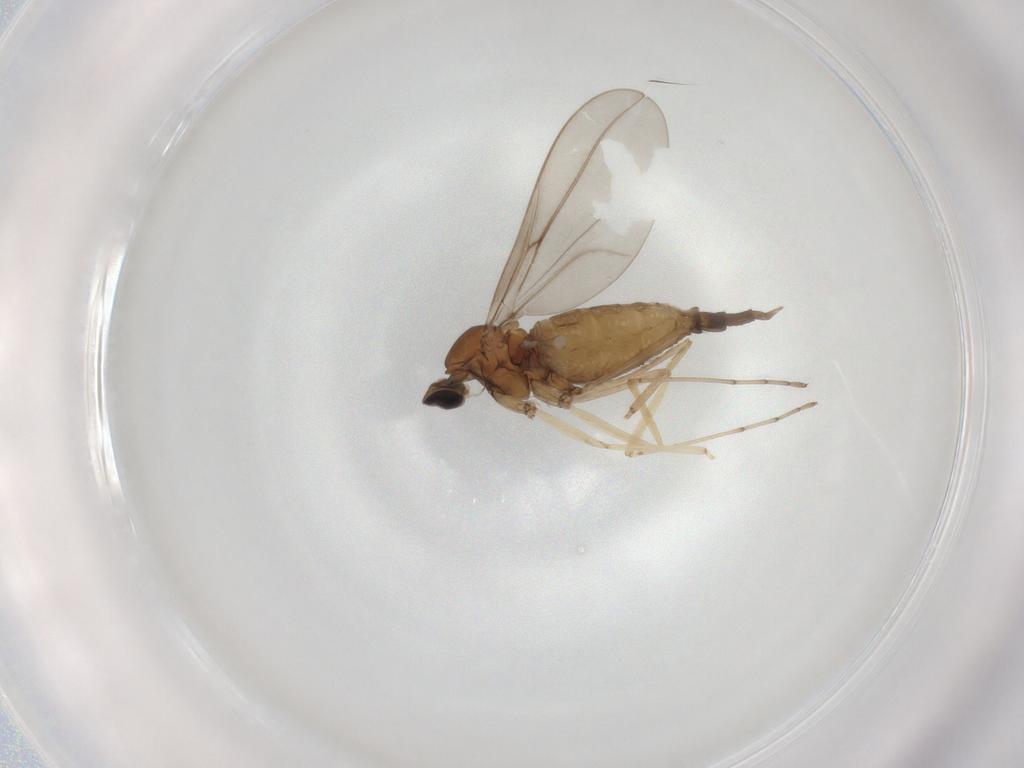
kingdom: Animalia
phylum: Arthropoda
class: Insecta
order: Diptera
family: Cecidomyiidae
